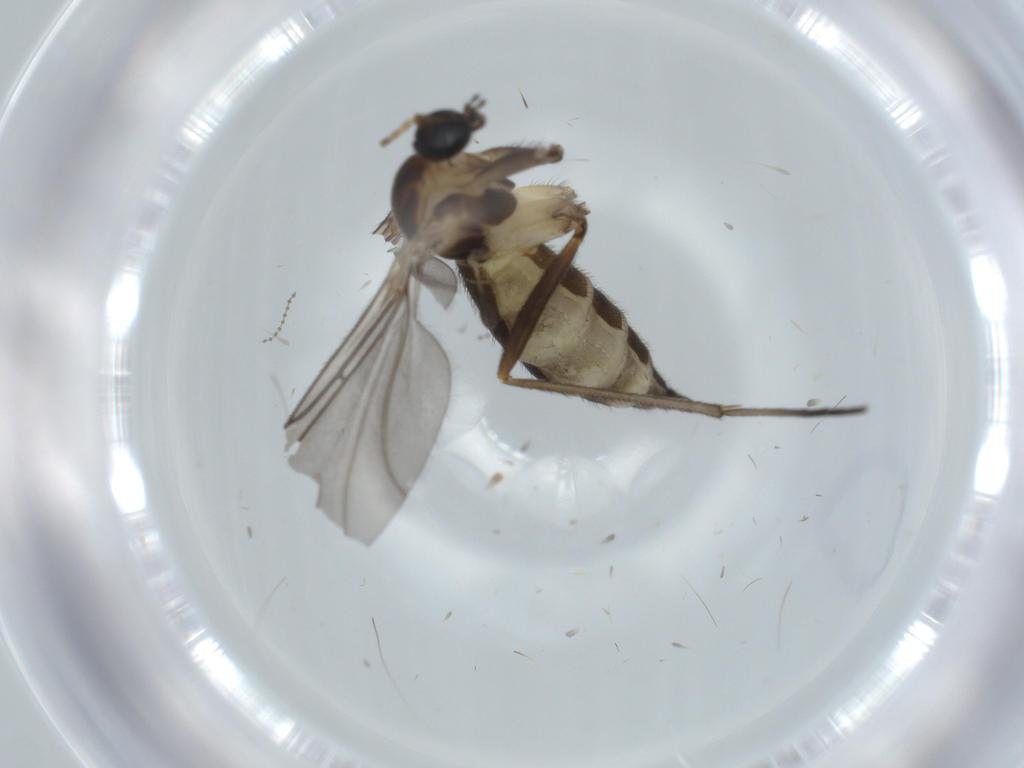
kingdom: Animalia
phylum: Arthropoda
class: Insecta
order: Diptera
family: Sciaridae
